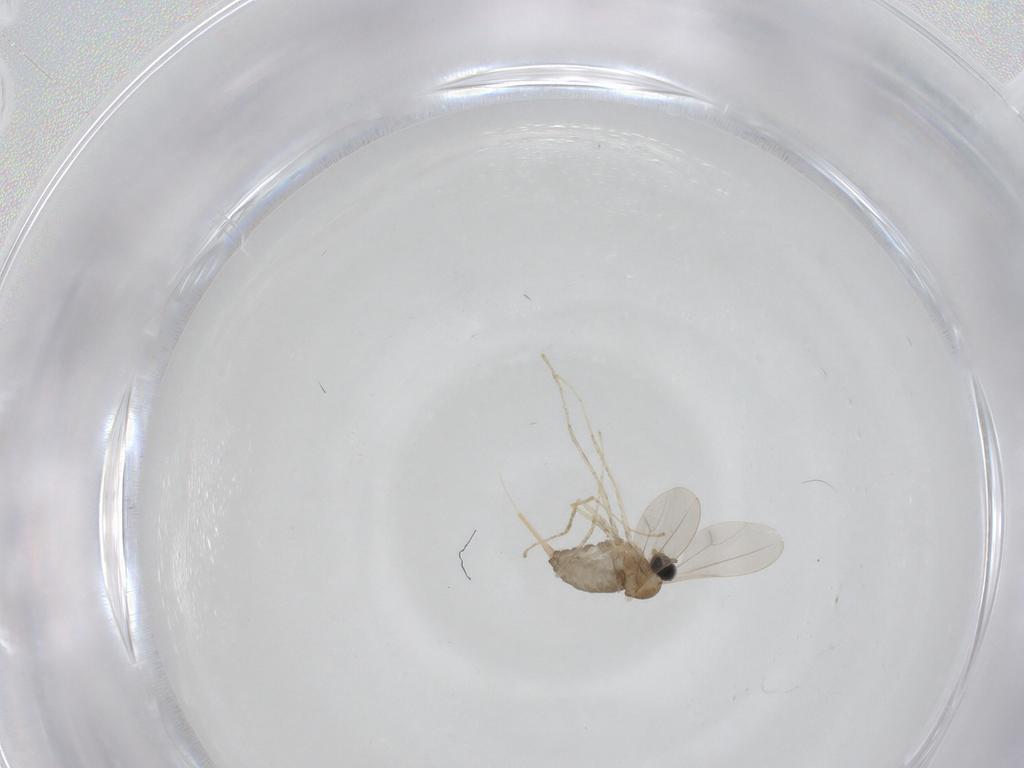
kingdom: Animalia
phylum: Arthropoda
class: Insecta
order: Diptera
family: Cecidomyiidae
